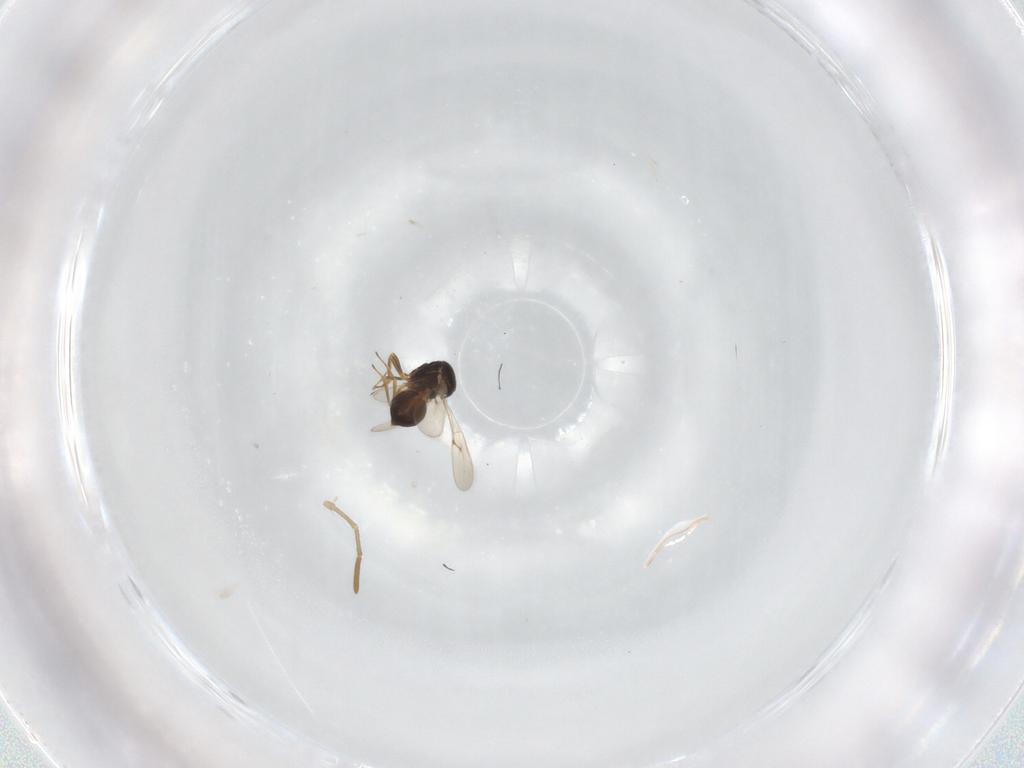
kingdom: Animalia
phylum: Arthropoda
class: Insecta
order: Hymenoptera
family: Scelionidae
